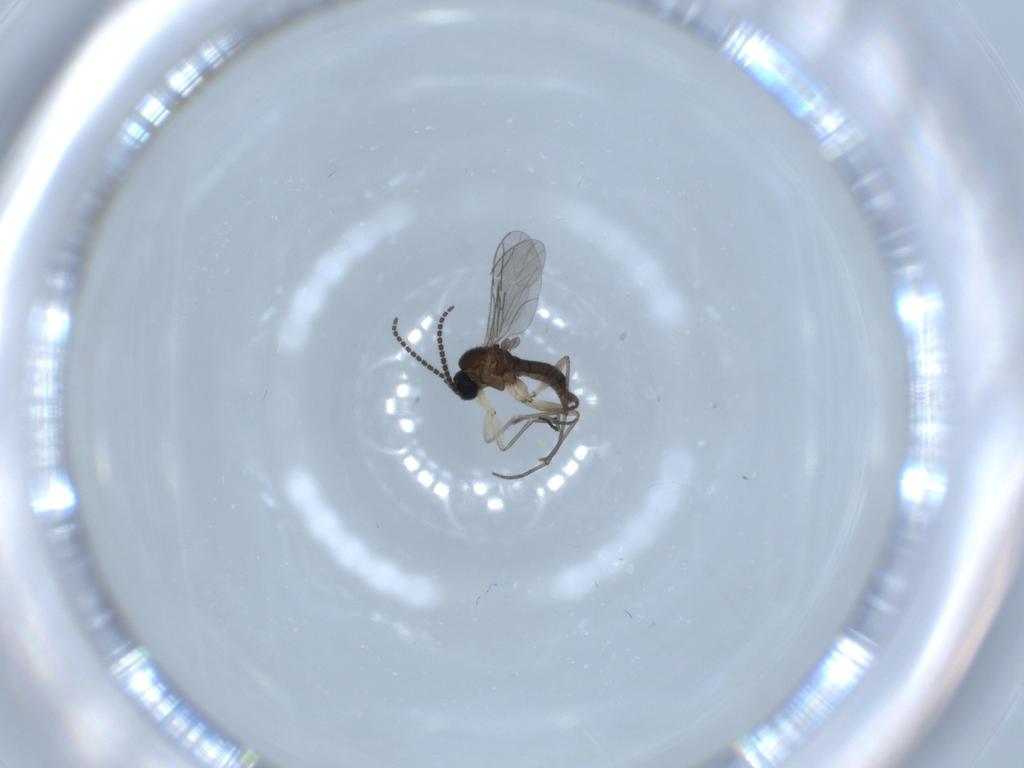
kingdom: Animalia
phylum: Arthropoda
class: Insecta
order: Diptera
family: Sciaridae
